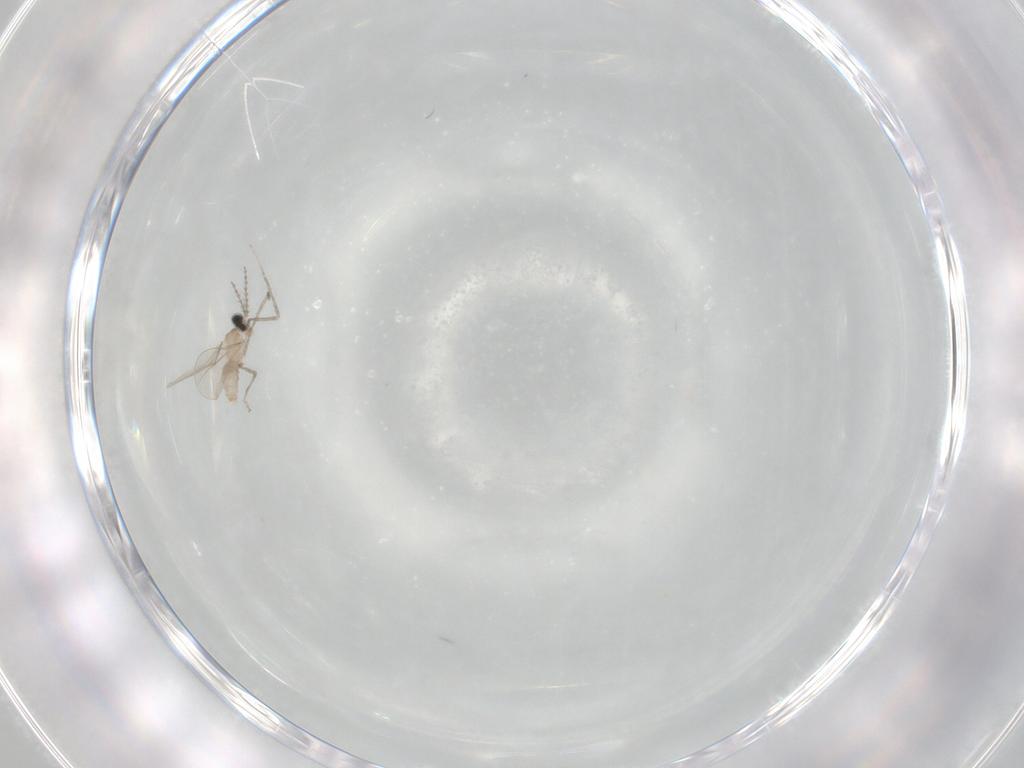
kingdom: Animalia
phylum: Arthropoda
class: Insecta
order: Diptera
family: Cecidomyiidae
